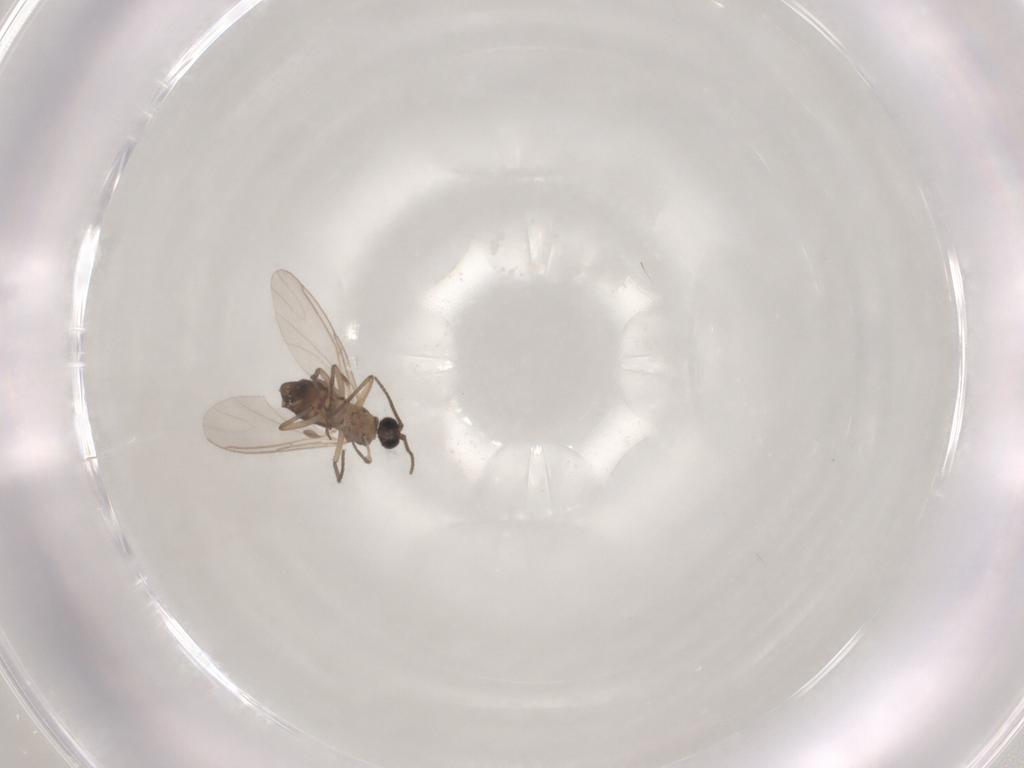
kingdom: Animalia
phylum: Arthropoda
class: Insecta
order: Diptera
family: Sciaridae
